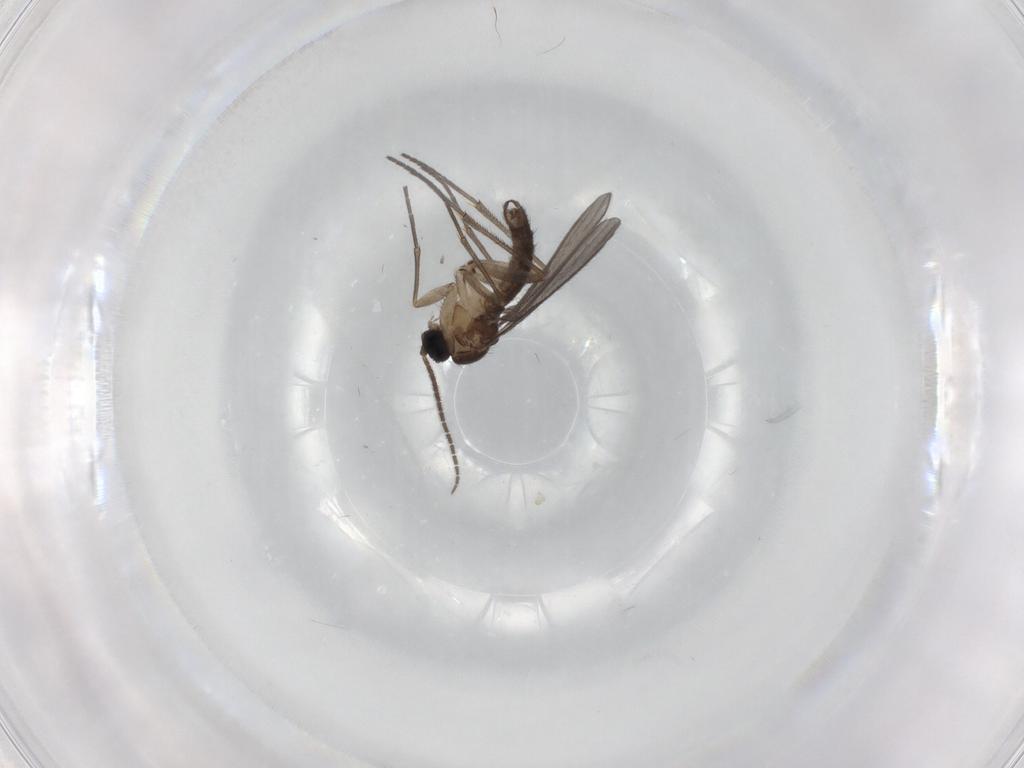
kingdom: Animalia
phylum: Arthropoda
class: Insecta
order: Diptera
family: Sciaridae
